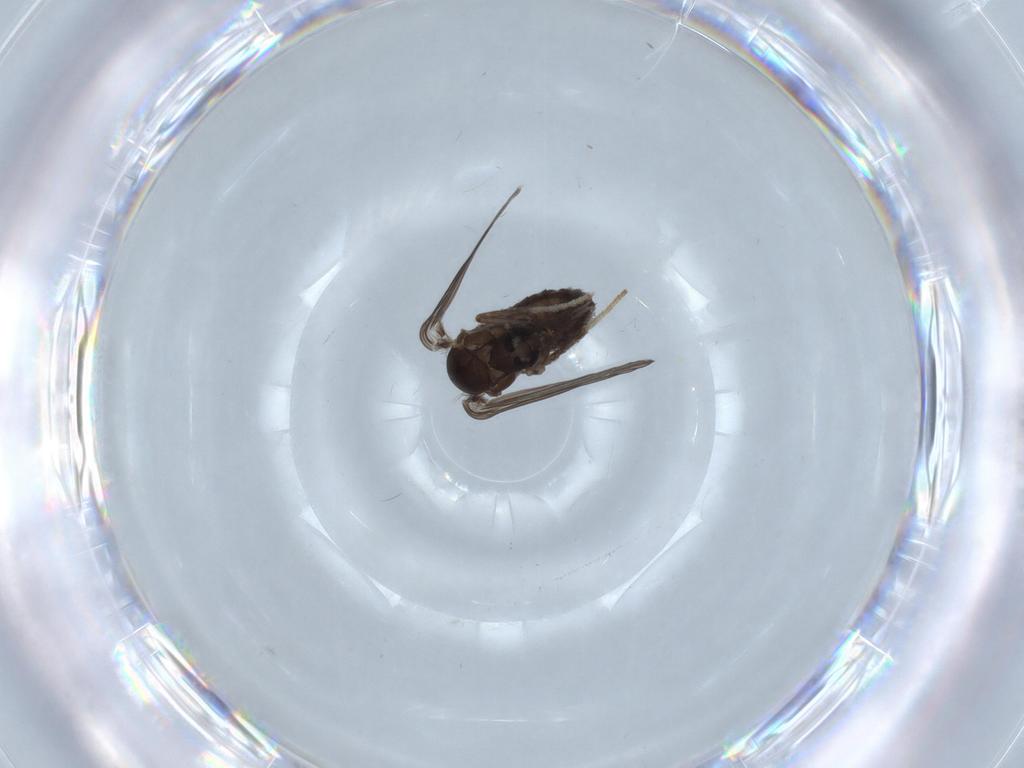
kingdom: Animalia
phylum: Arthropoda
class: Insecta
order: Diptera
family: Psychodidae
